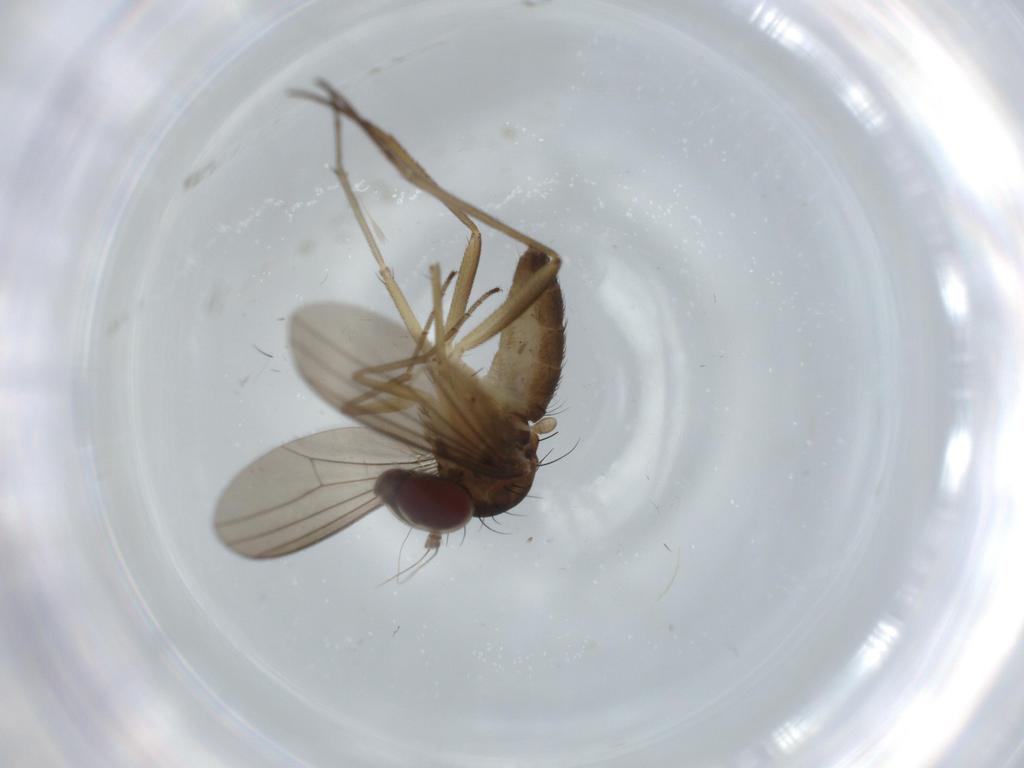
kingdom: Animalia
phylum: Arthropoda
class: Insecta
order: Diptera
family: Dolichopodidae
